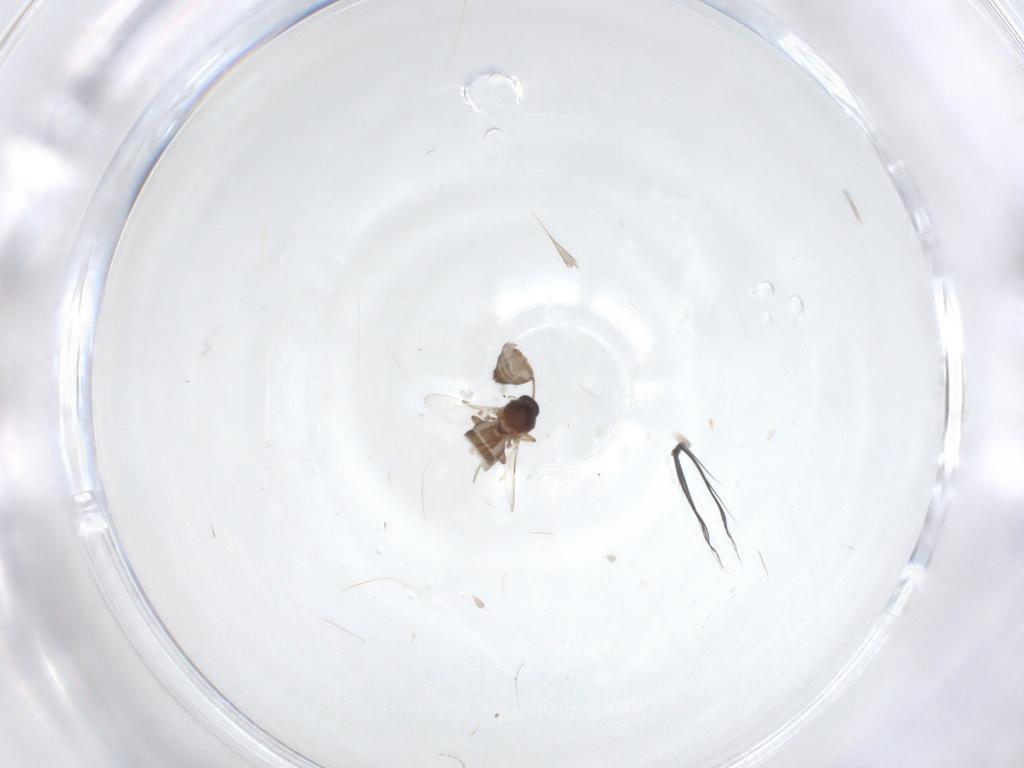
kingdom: Animalia
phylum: Arthropoda
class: Insecta
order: Diptera
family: Ceratopogonidae
